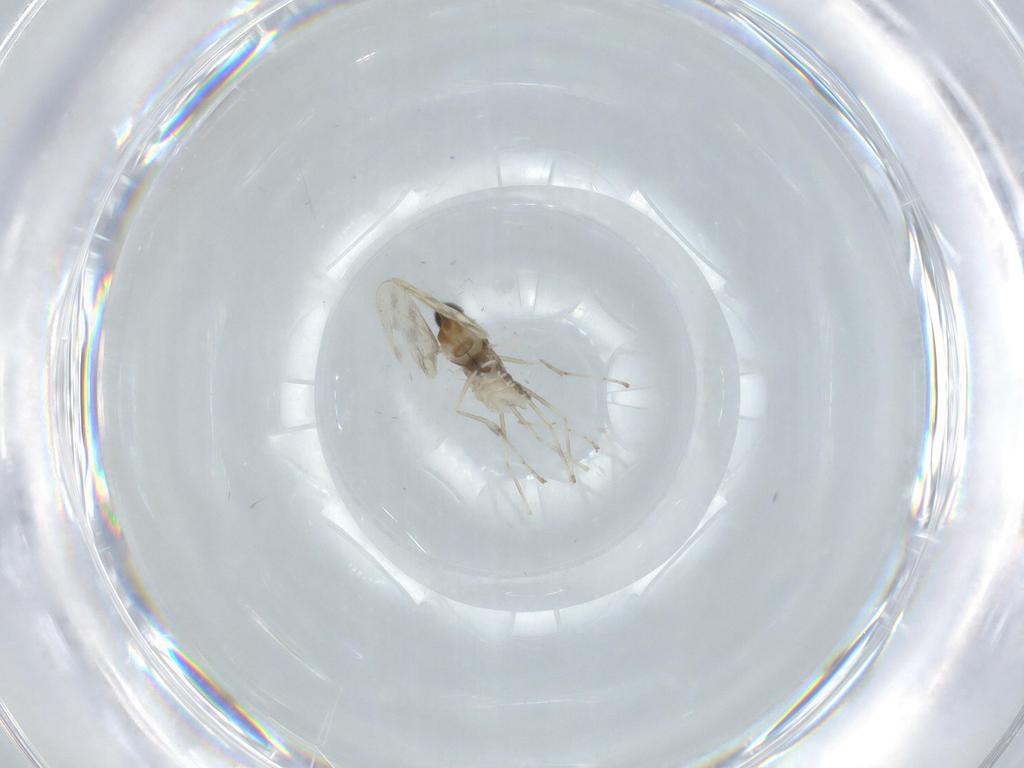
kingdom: Animalia
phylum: Arthropoda
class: Insecta
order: Diptera
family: Cecidomyiidae
